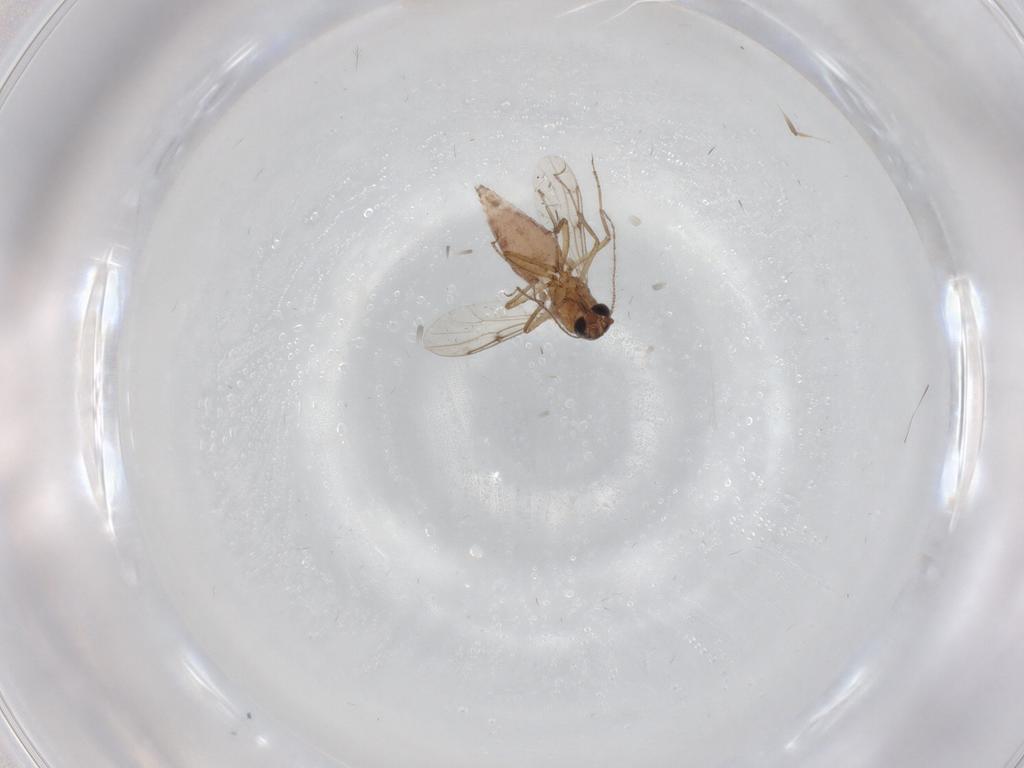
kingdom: Animalia
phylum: Arthropoda
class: Insecta
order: Diptera
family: Ceratopogonidae
